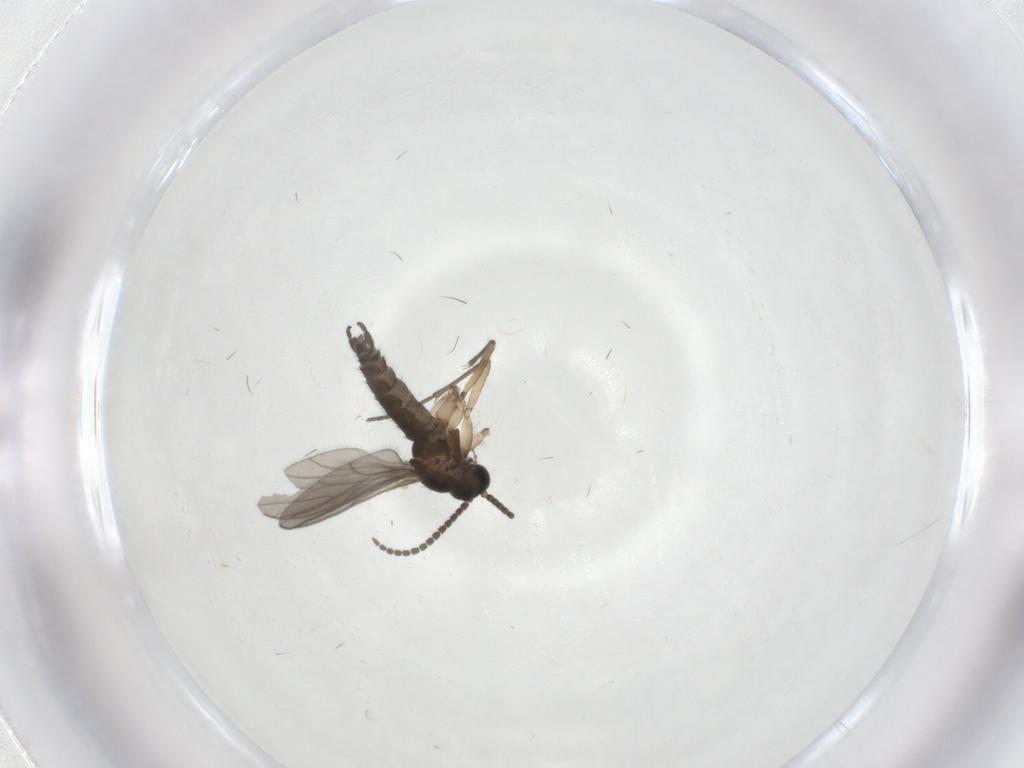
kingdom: Animalia
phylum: Arthropoda
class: Insecta
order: Diptera
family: Sciaridae
